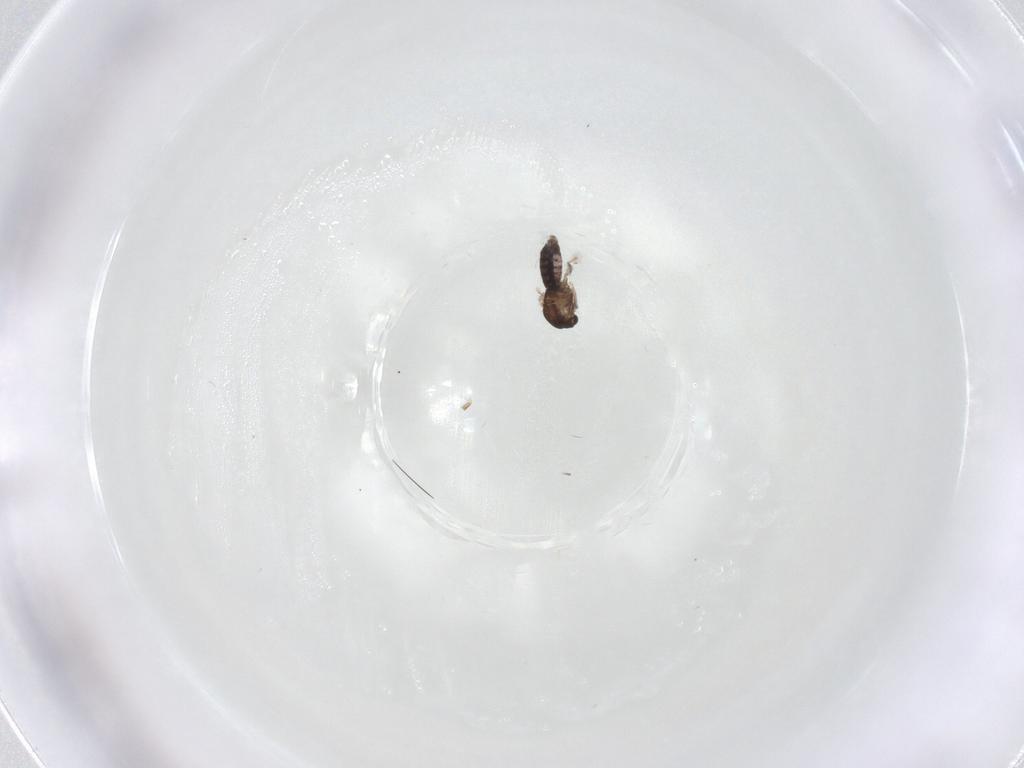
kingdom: Animalia
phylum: Arthropoda
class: Insecta
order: Diptera
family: Chironomidae
